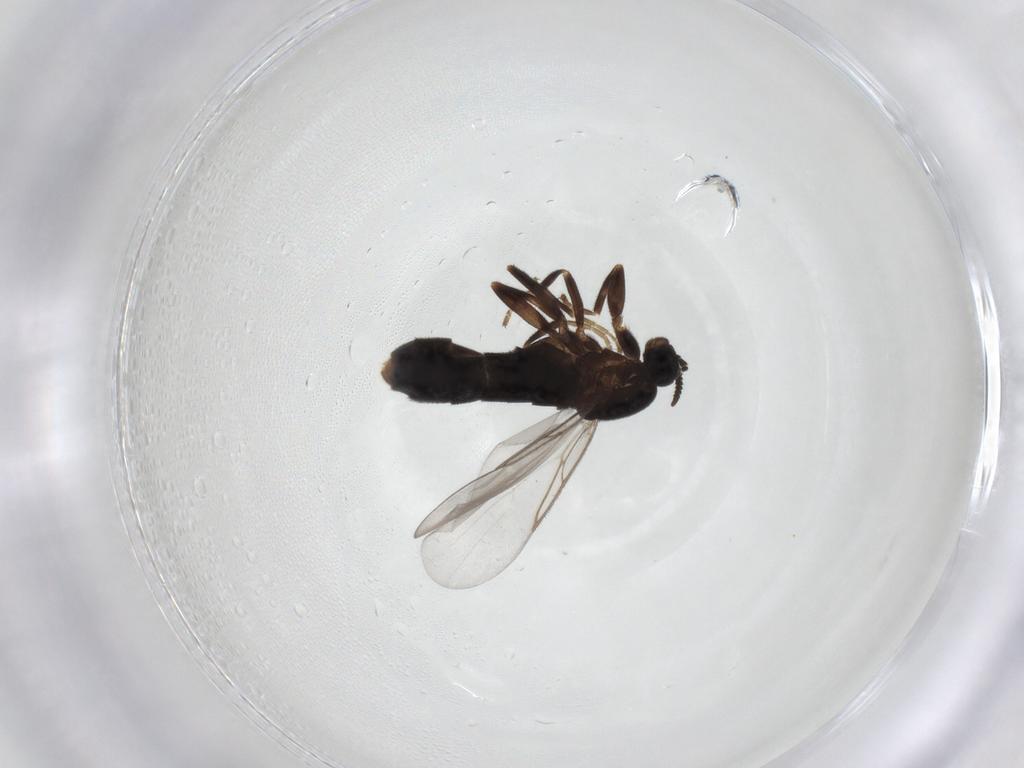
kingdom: Animalia
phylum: Arthropoda
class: Insecta
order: Diptera
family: Scatopsidae
